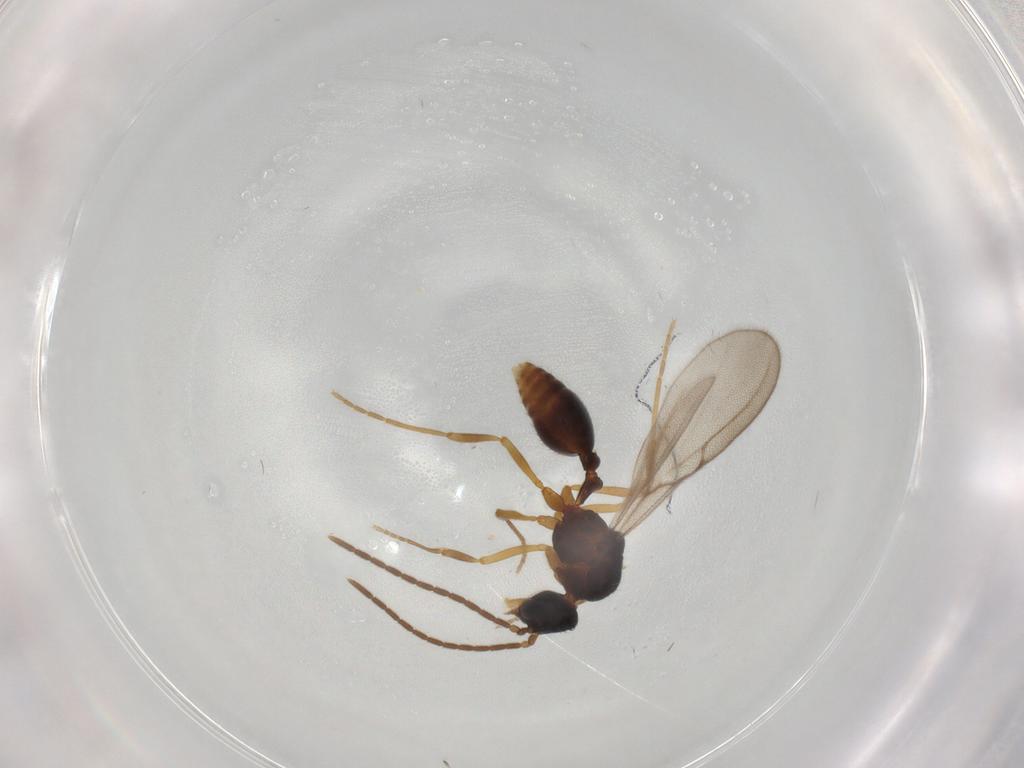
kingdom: Animalia
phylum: Arthropoda
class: Insecta
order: Hymenoptera
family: Formicidae
